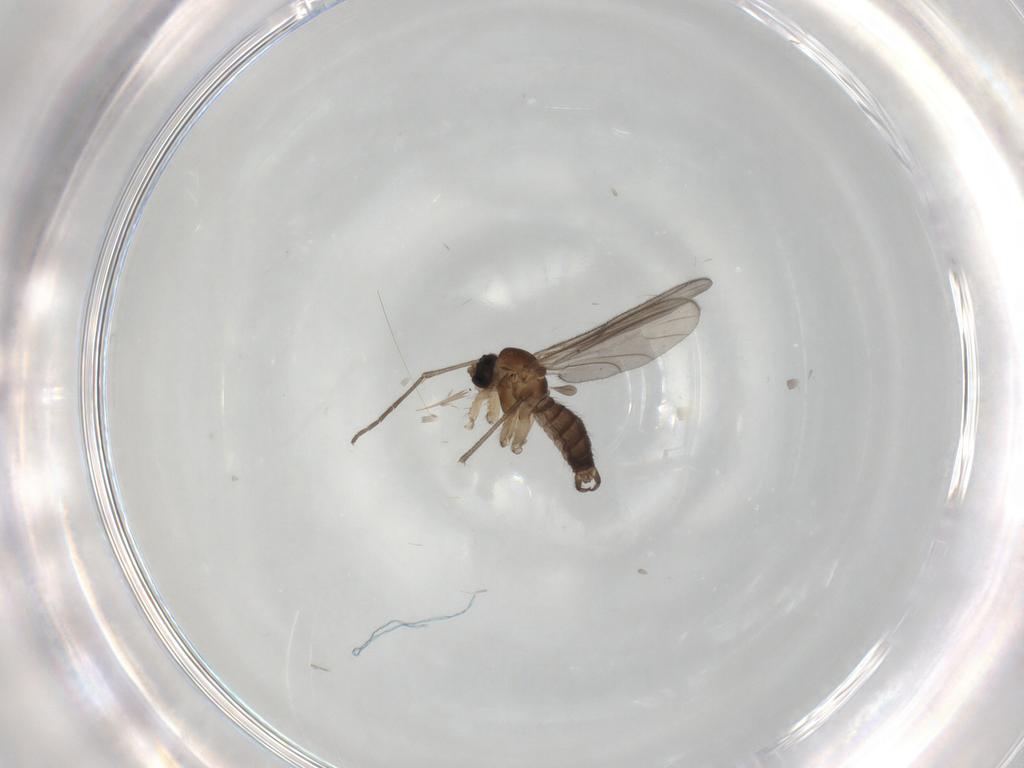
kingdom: Animalia
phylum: Arthropoda
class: Insecta
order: Diptera
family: Sciaridae
